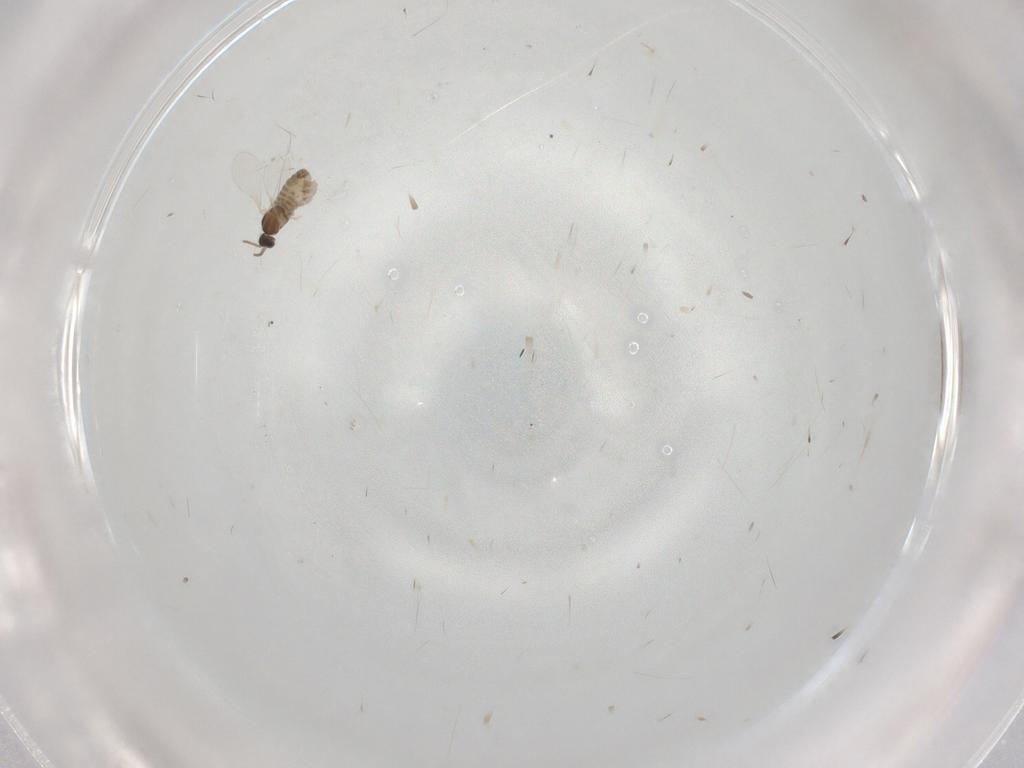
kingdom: Animalia
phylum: Arthropoda
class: Insecta
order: Diptera
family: Cecidomyiidae
